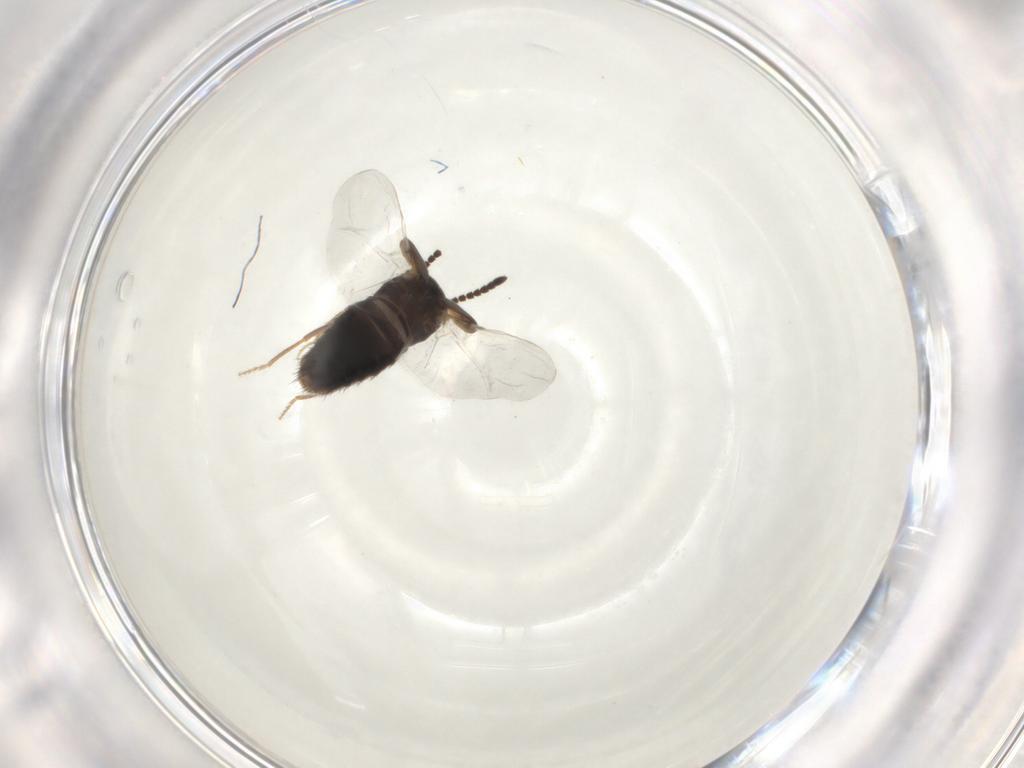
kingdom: Animalia
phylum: Arthropoda
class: Insecta
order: Coleoptera
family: Staphylinidae
